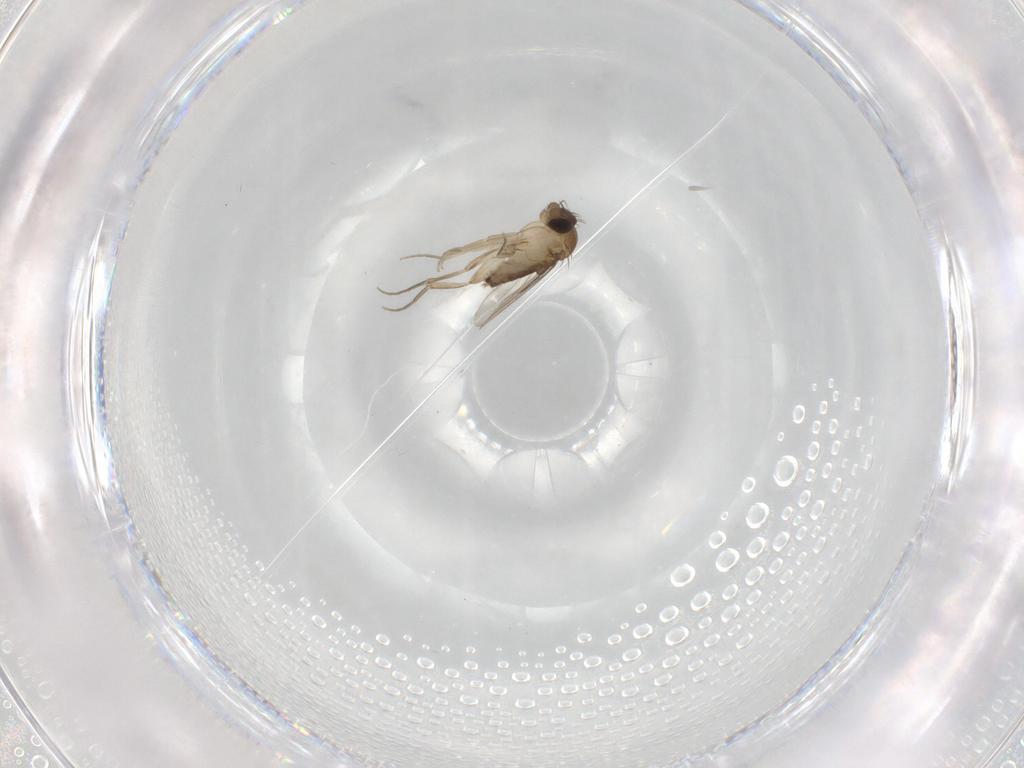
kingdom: Animalia
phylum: Arthropoda
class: Insecta
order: Diptera
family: Phoridae
